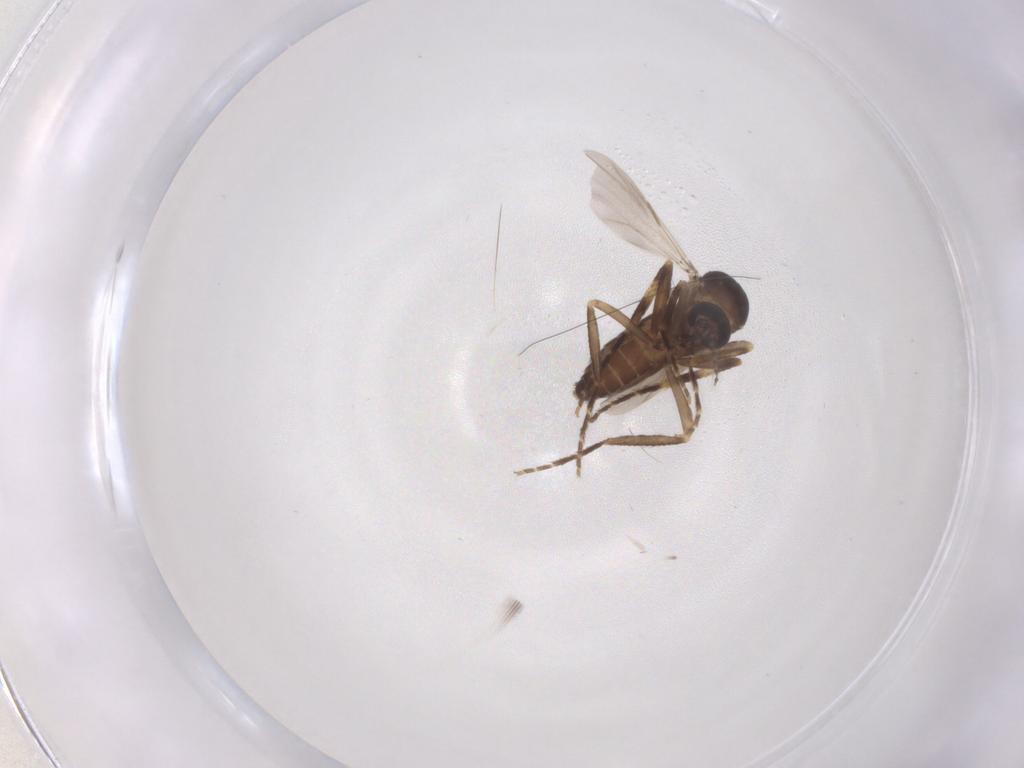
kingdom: Animalia
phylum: Arthropoda
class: Insecta
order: Diptera
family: Ceratopogonidae
